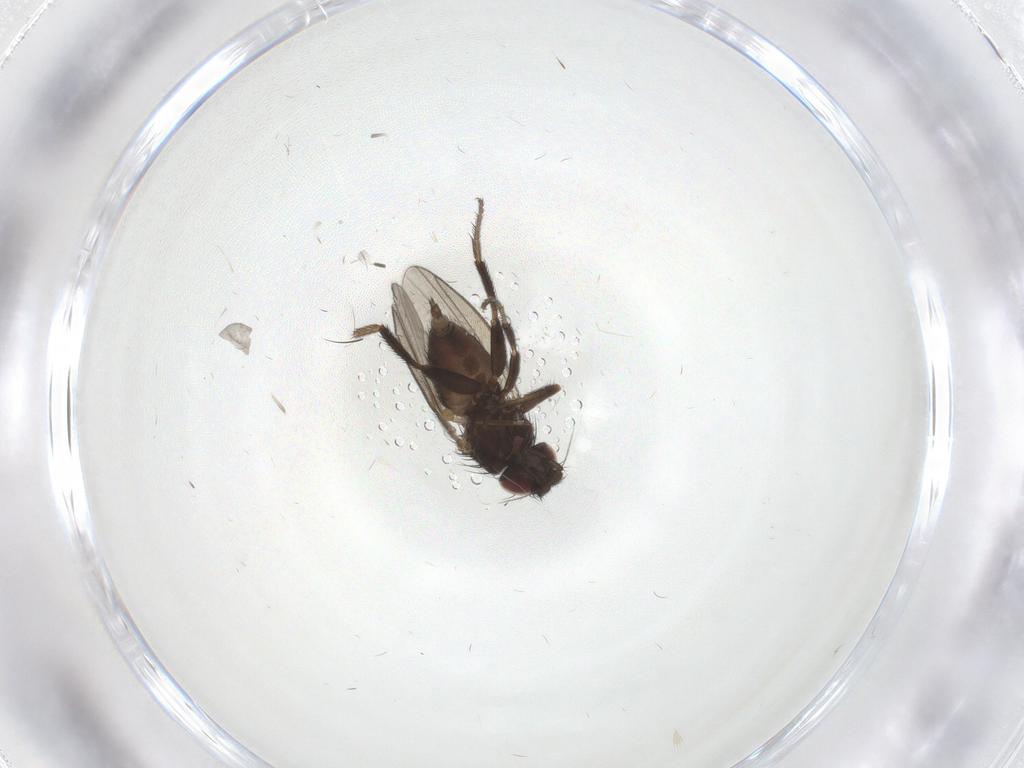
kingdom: Animalia
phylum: Arthropoda
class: Insecta
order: Diptera
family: Milichiidae
